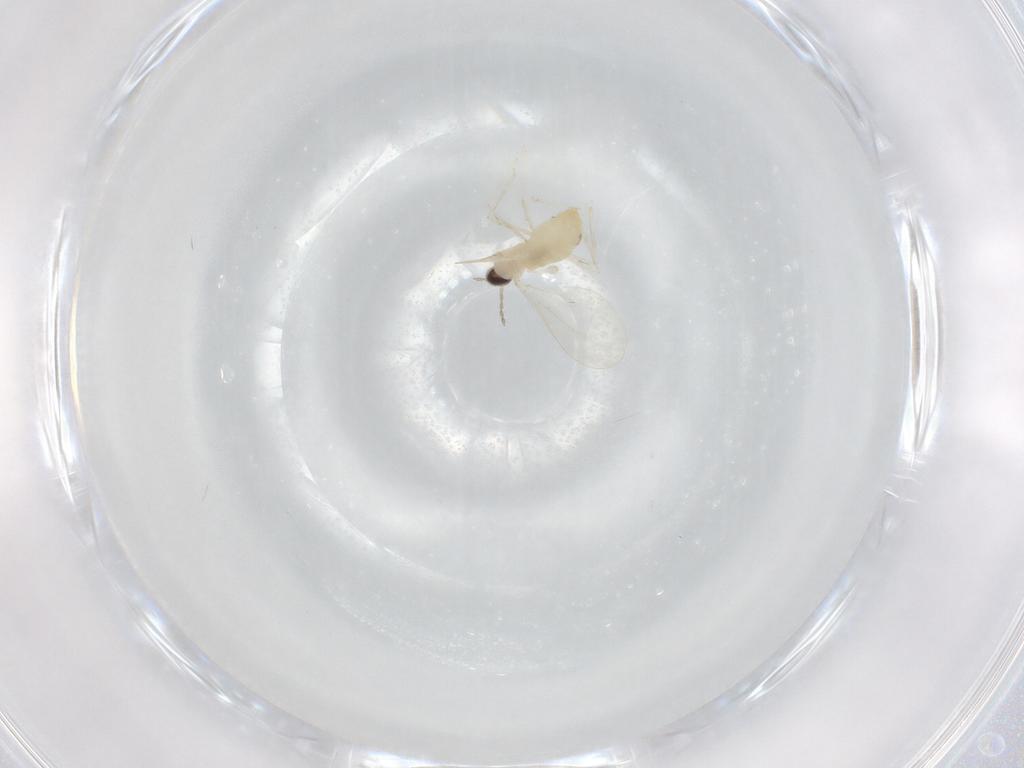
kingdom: Animalia
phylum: Arthropoda
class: Insecta
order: Diptera
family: Cecidomyiidae
